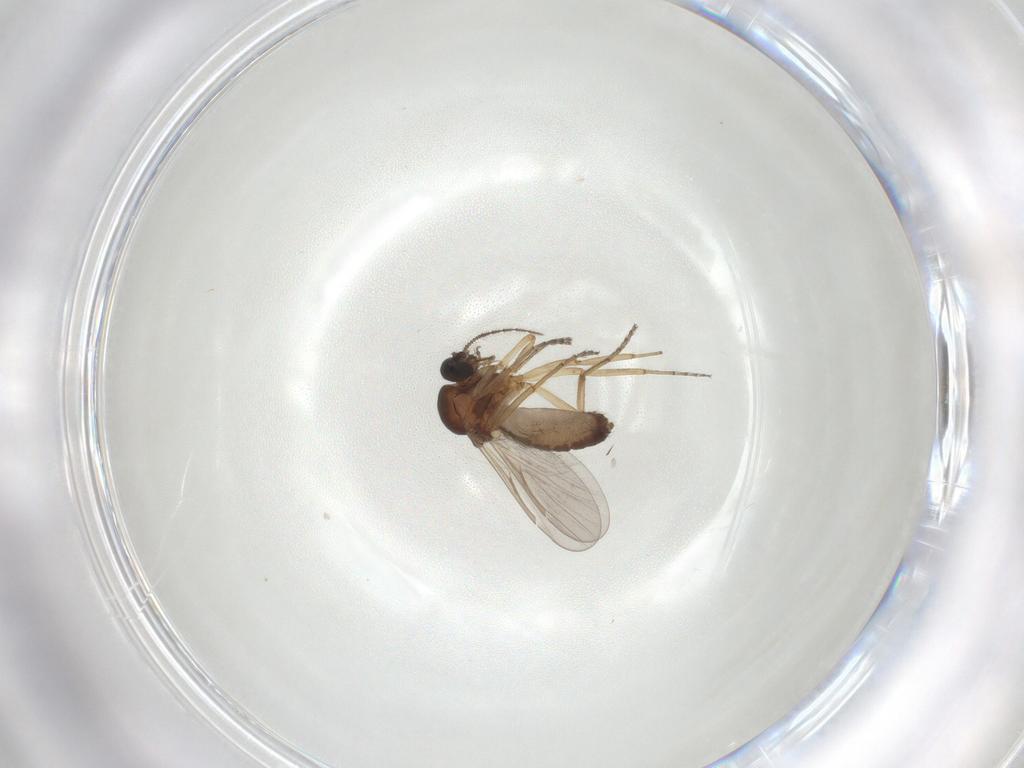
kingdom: Animalia
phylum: Arthropoda
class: Insecta
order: Diptera
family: Ceratopogonidae
